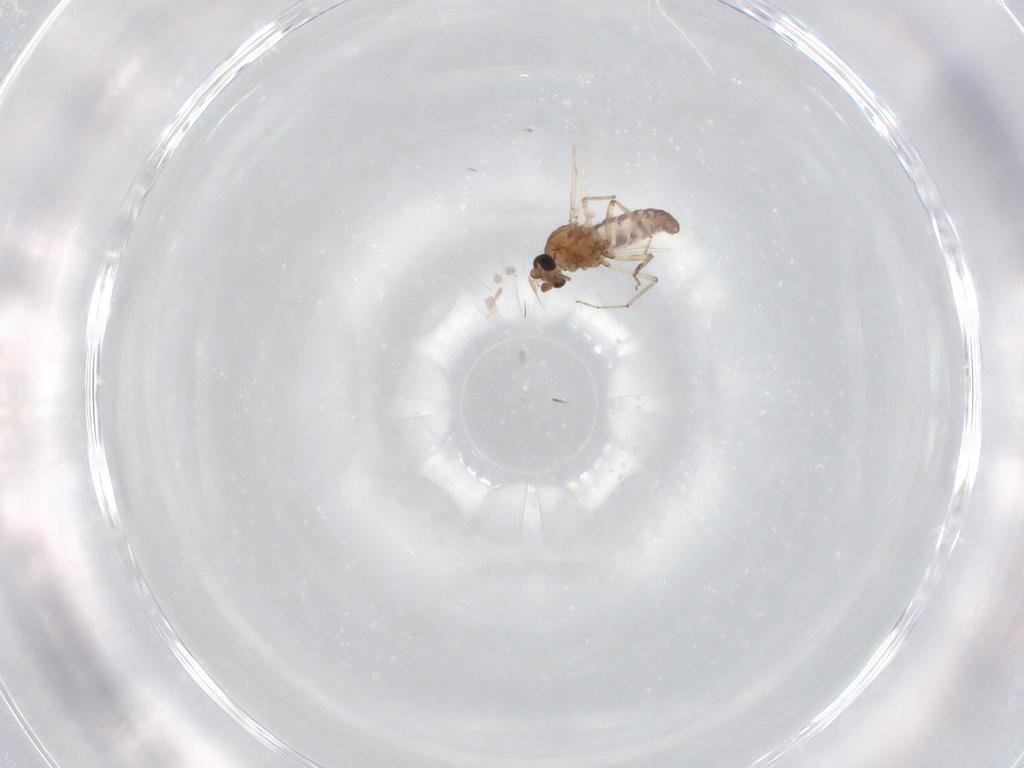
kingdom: Animalia
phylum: Arthropoda
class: Insecta
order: Diptera
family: Ceratopogonidae
